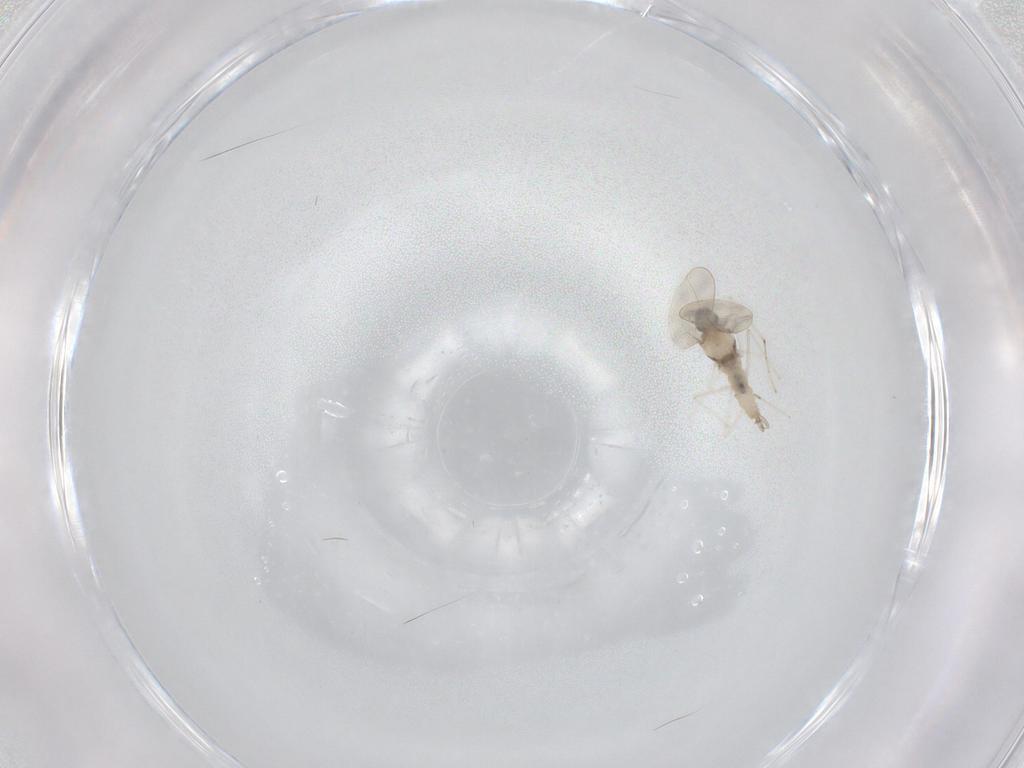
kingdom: Animalia
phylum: Arthropoda
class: Insecta
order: Diptera
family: Cecidomyiidae
